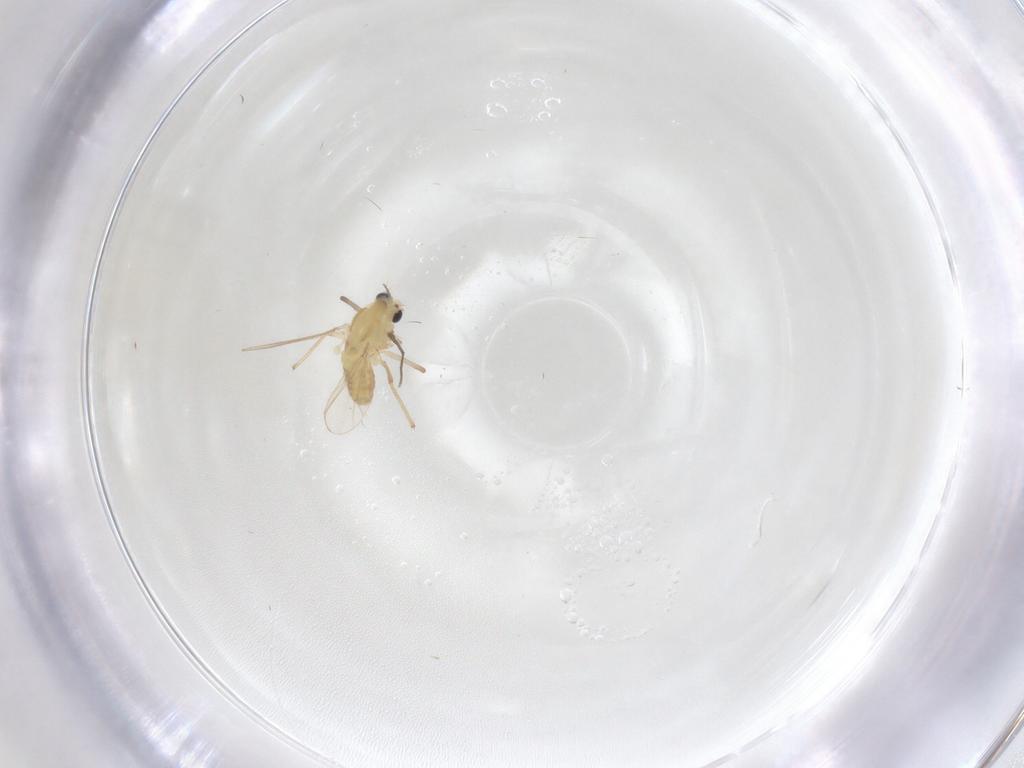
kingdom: Animalia
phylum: Arthropoda
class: Insecta
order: Diptera
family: Chironomidae
